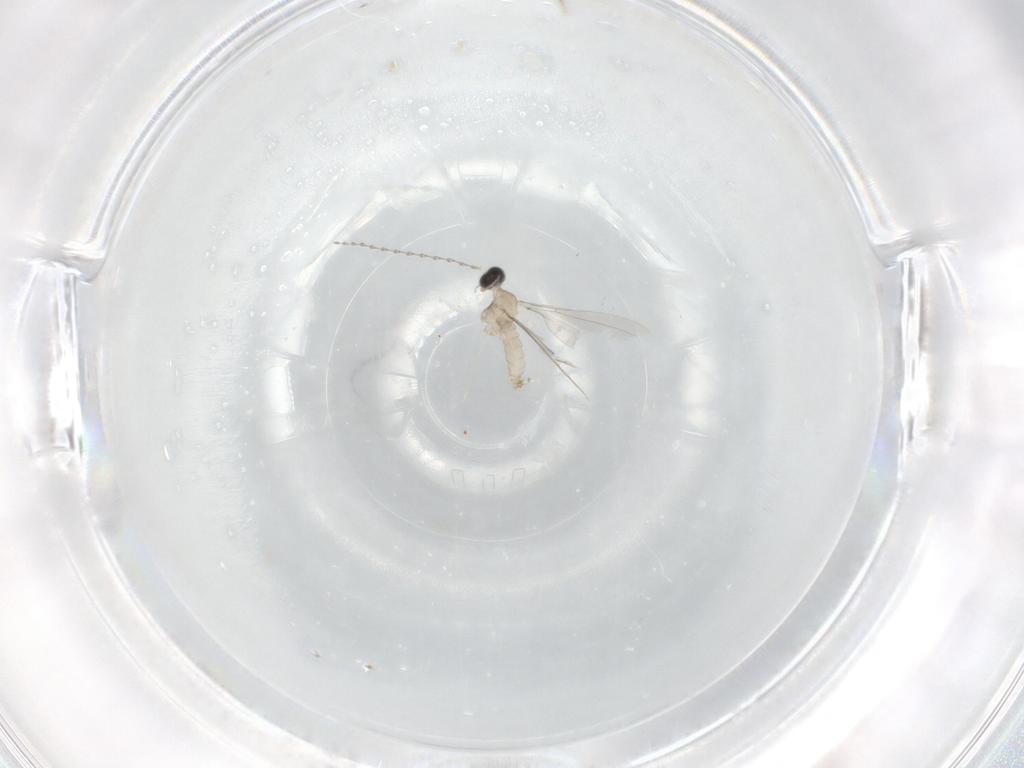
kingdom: Animalia
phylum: Arthropoda
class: Insecta
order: Diptera
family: Cecidomyiidae
